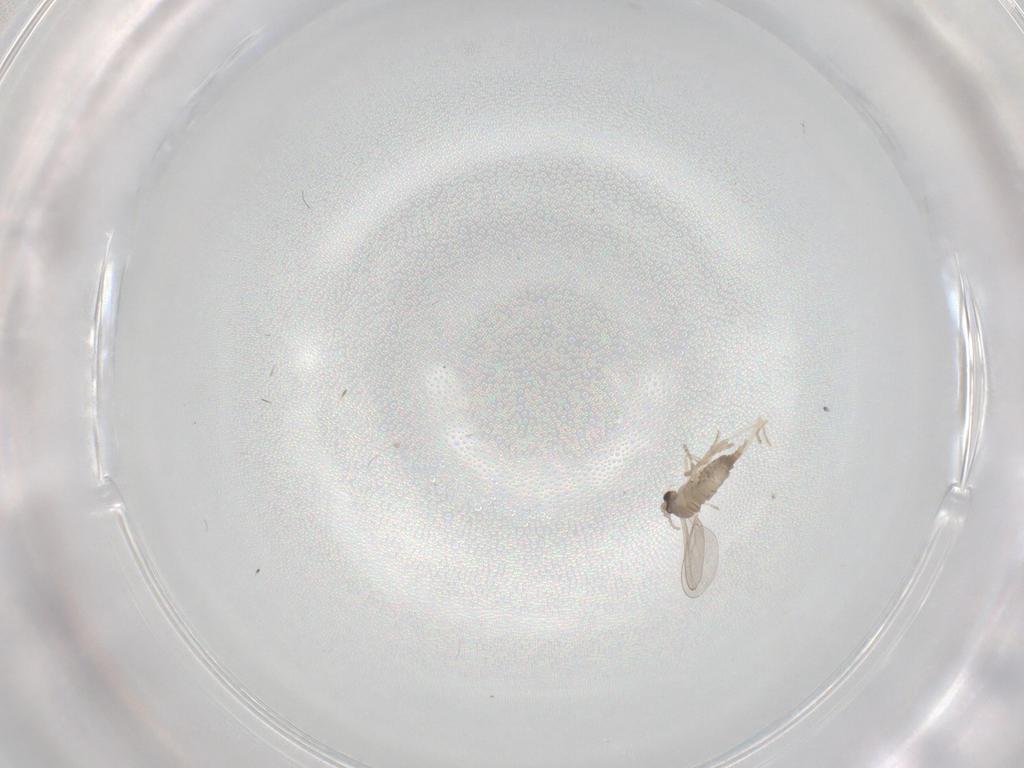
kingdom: Animalia
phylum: Arthropoda
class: Insecta
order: Diptera
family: Cecidomyiidae
